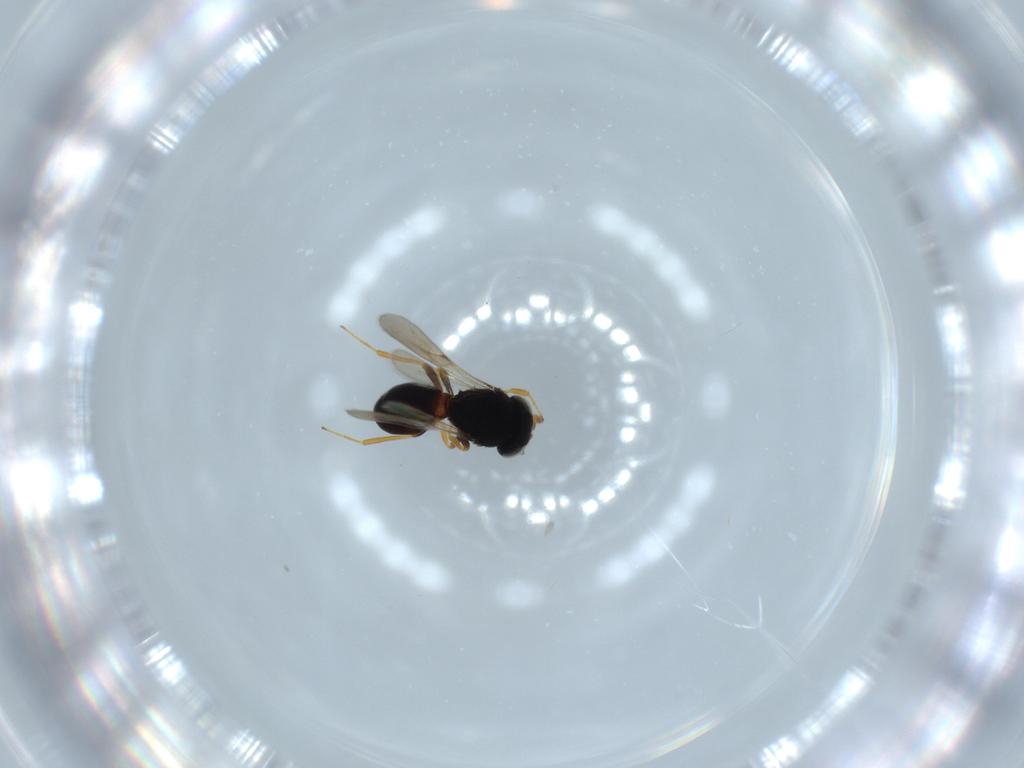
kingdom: Animalia
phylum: Arthropoda
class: Insecta
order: Hymenoptera
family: Scelionidae
